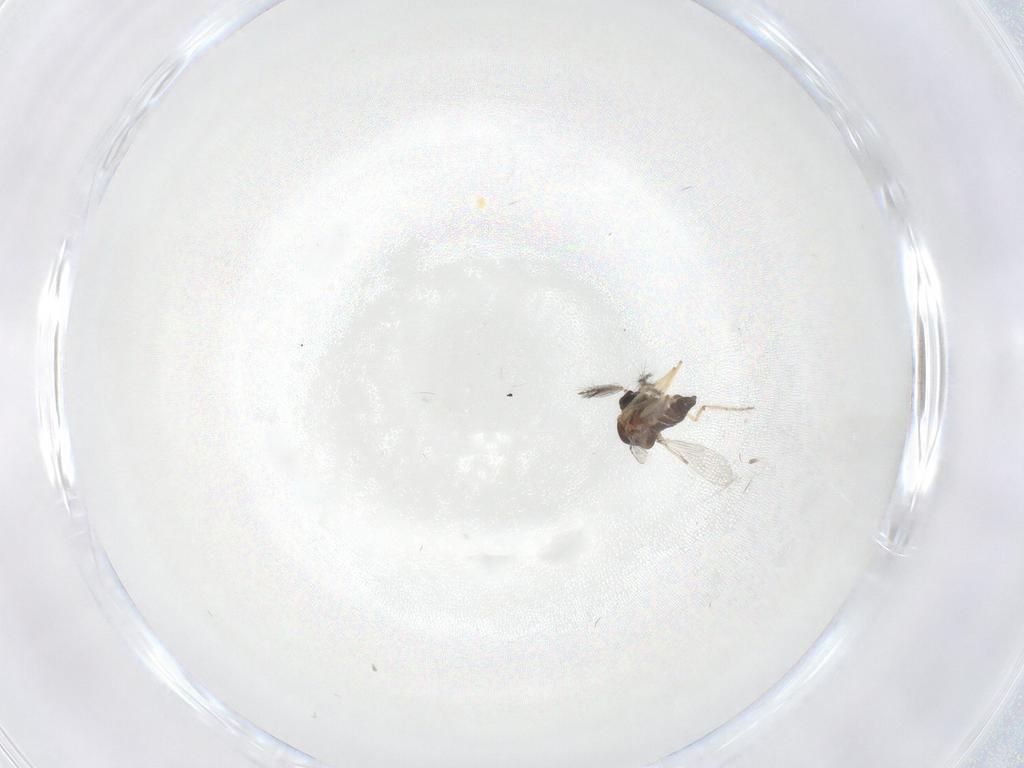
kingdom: Animalia
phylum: Arthropoda
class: Insecta
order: Diptera
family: Ceratopogonidae
